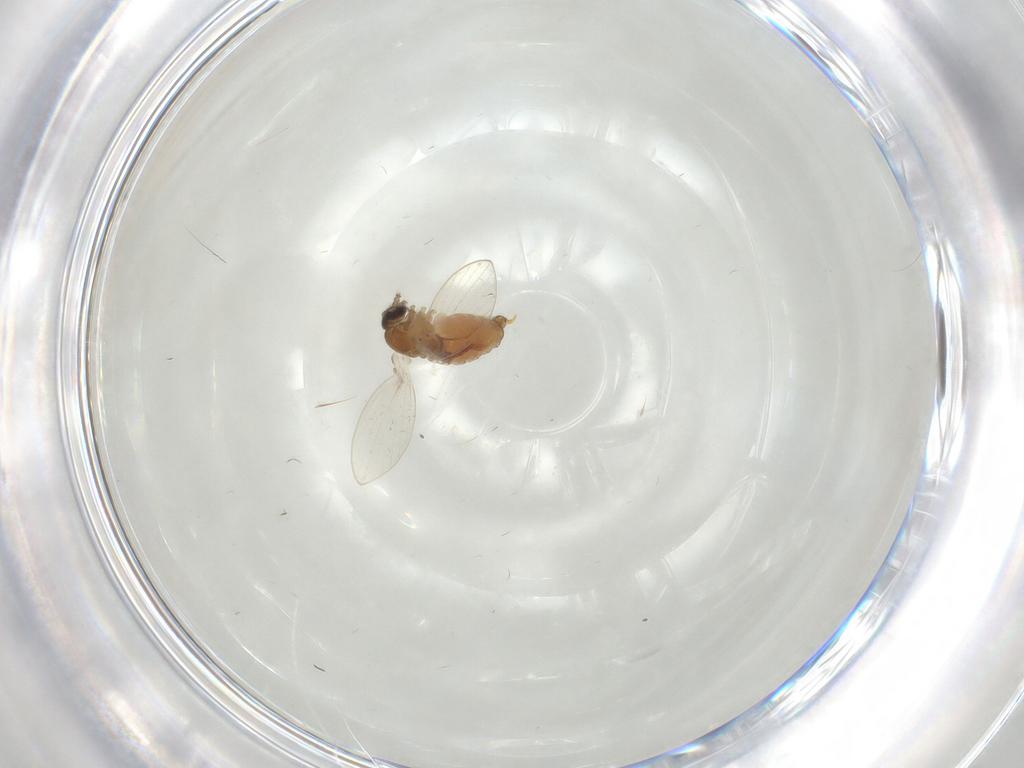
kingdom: Animalia
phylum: Arthropoda
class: Insecta
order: Diptera
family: Psychodidae
